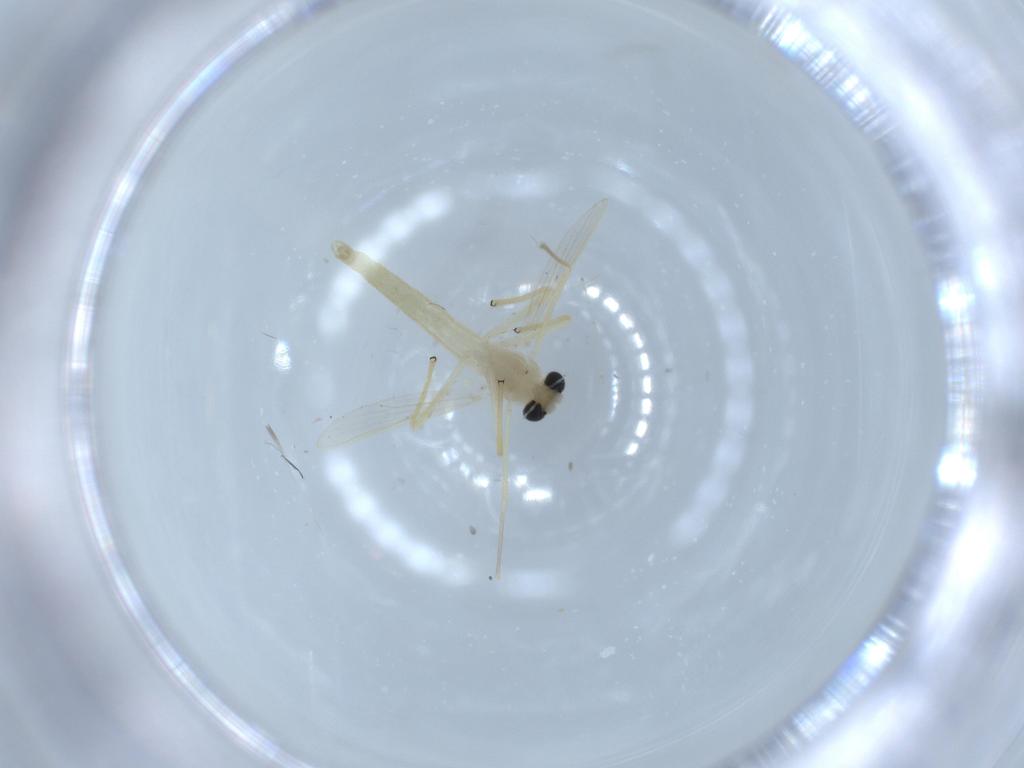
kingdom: Animalia
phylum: Arthropoda
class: Insecta
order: Diptera
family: Chironomidae
